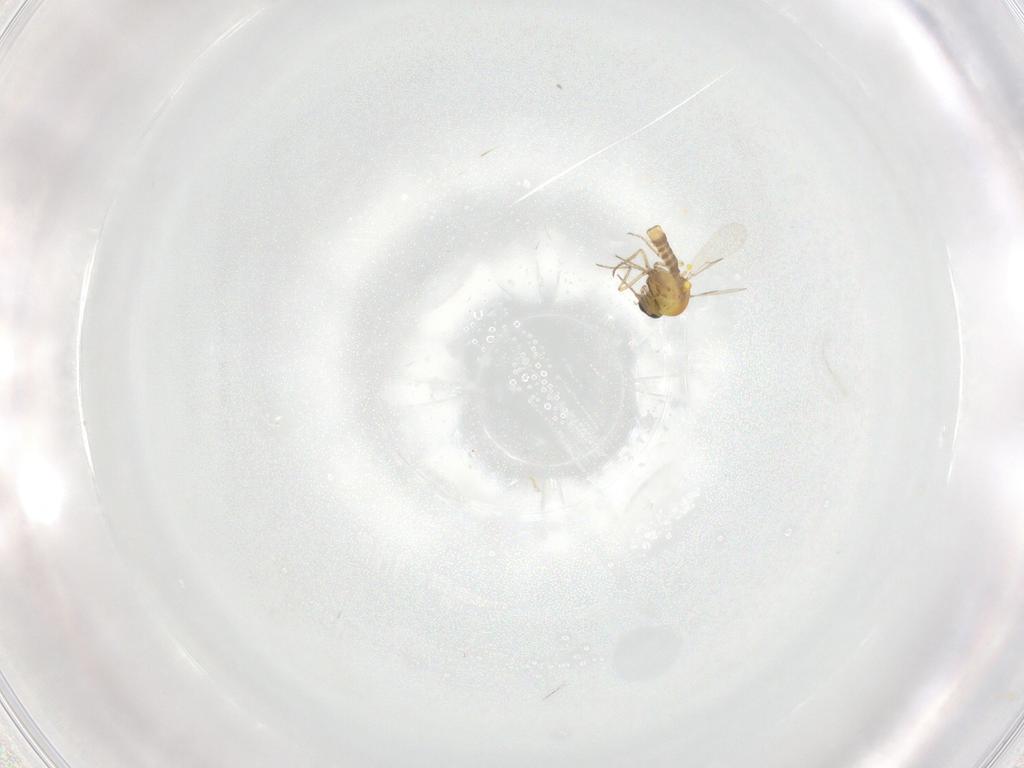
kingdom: Animalia
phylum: Arthropoda
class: Insecta
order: Diptera
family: Ceratopogonidae
